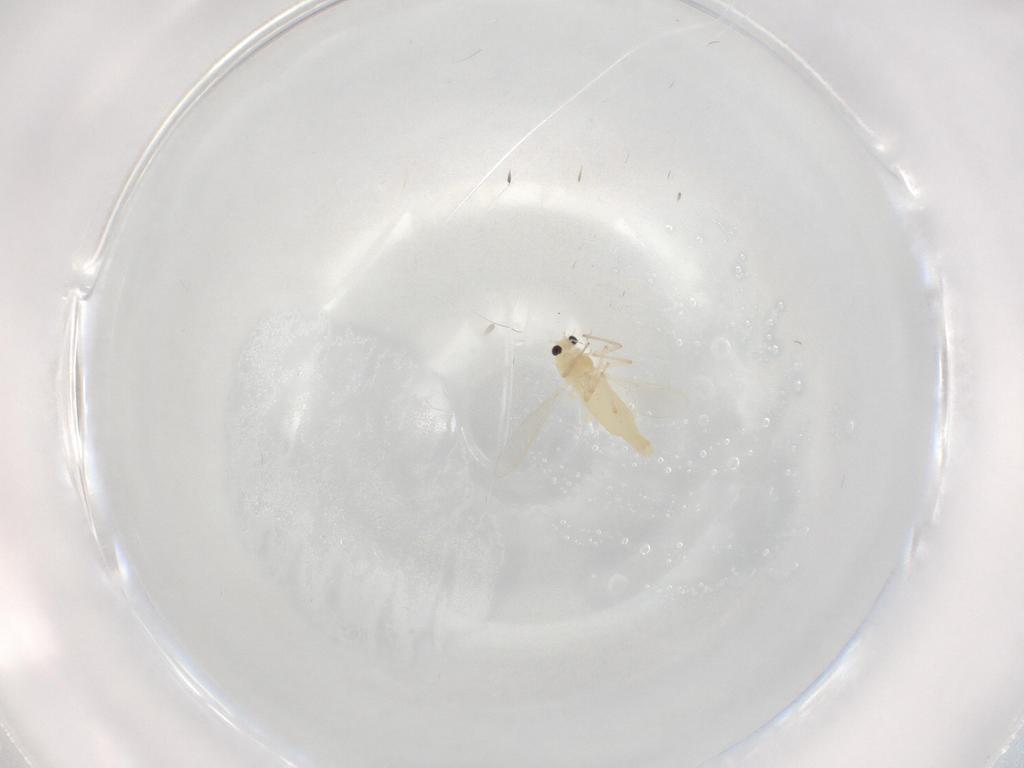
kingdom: Animalia
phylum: Arthropoda
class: Insecta
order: Diptera
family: Chironomidae
